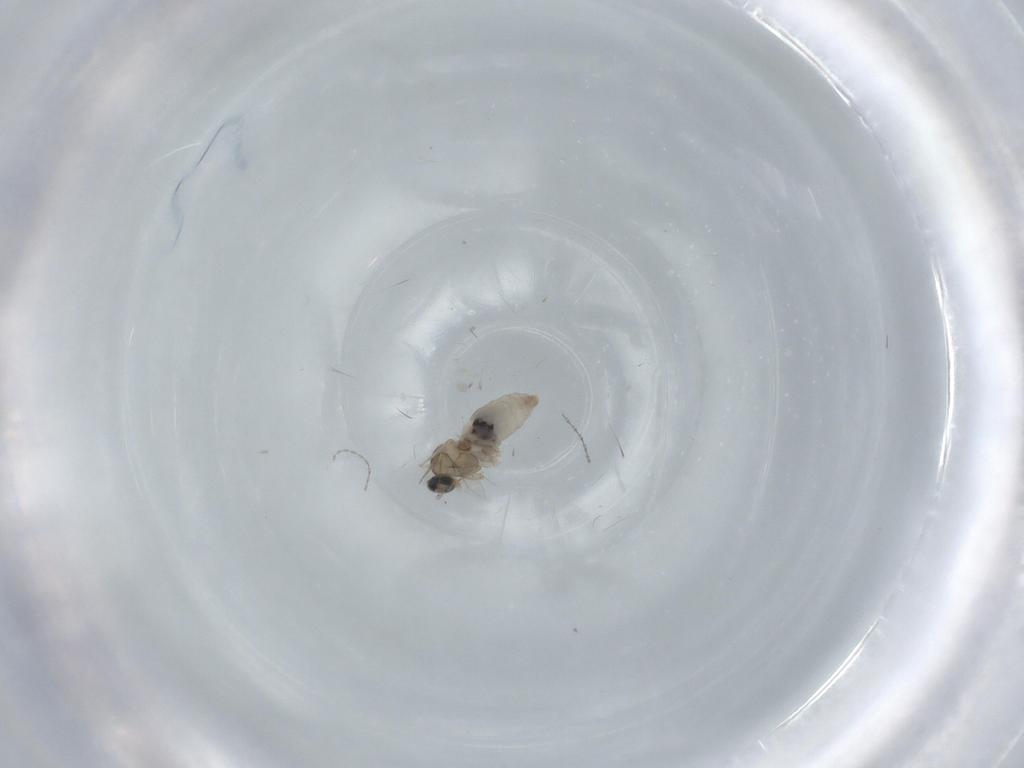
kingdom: Animalia
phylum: Arthropoda
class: Insecta
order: Diptera
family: Cecidomyiidae
